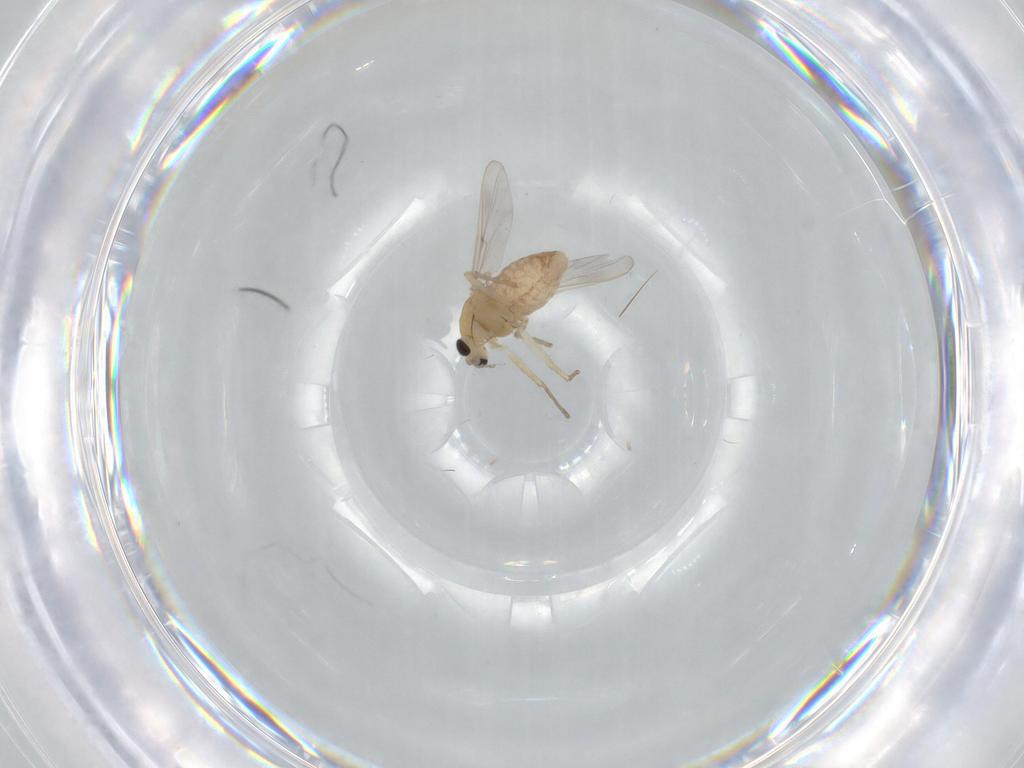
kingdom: Animalia
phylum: Arthropoda
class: Insecta
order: Diptera
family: Chironomidae
